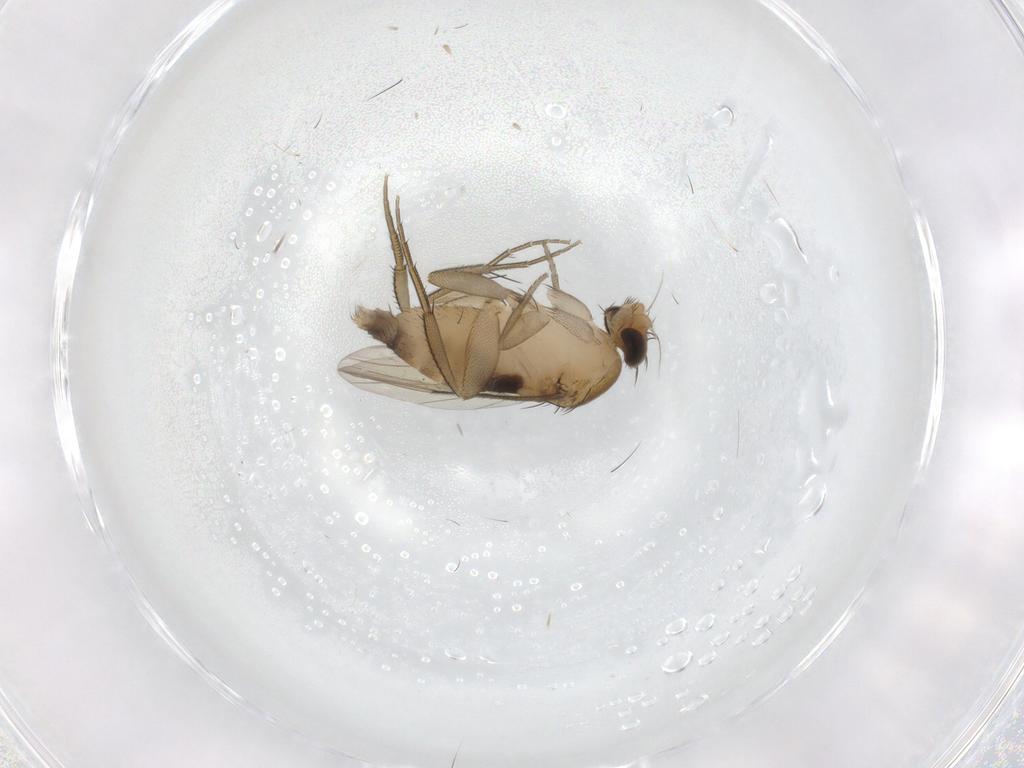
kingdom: Animalia
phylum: Arthropoda
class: Insecta
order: Diptera
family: Phoridae
